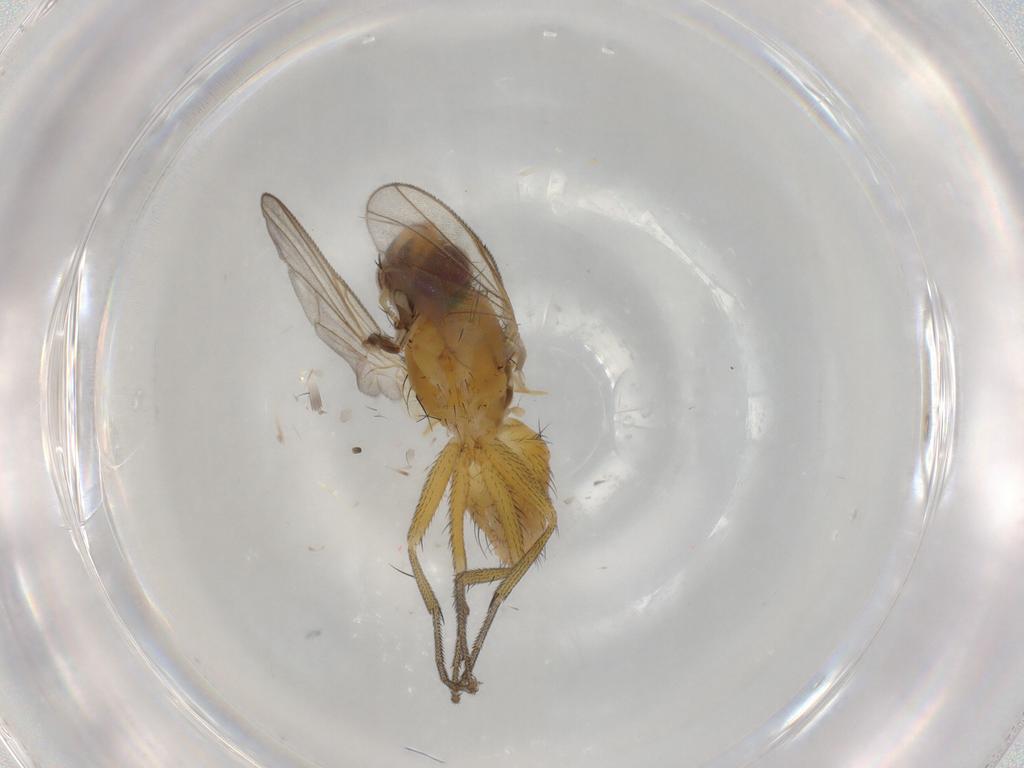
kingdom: Animalia
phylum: Arthropoda
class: Insecta
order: Diptera
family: Muscidae
